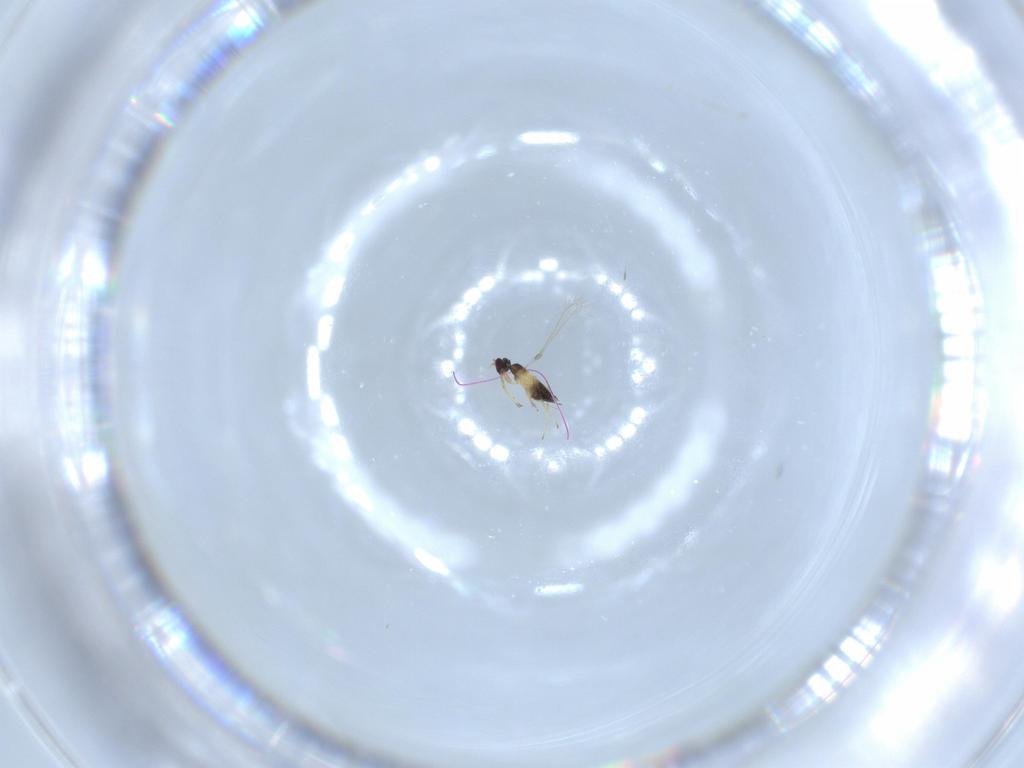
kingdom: Animalia
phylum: Arthropoda
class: Insecta
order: Hymenoptera
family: Mymaridae
